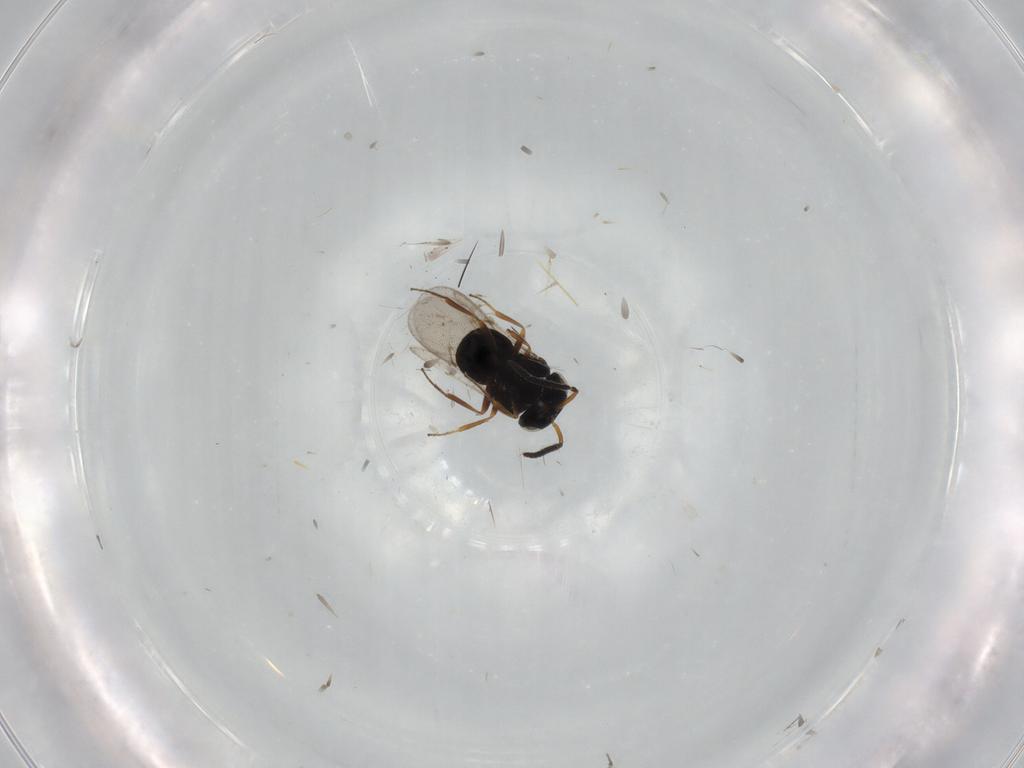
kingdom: Animalia
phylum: Arthropoda
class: Insecta
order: Hymenoptera
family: Scelionidae
